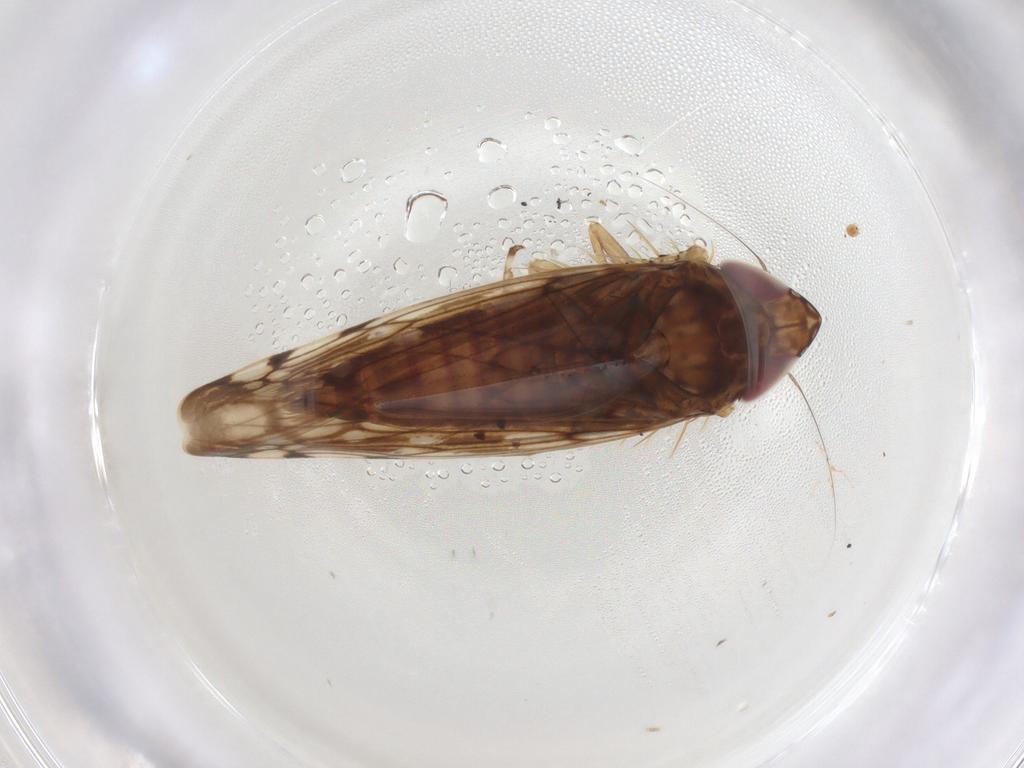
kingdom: Animalia
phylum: Arthropoda
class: Insecta
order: Hemiptera
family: Cicadellidae
